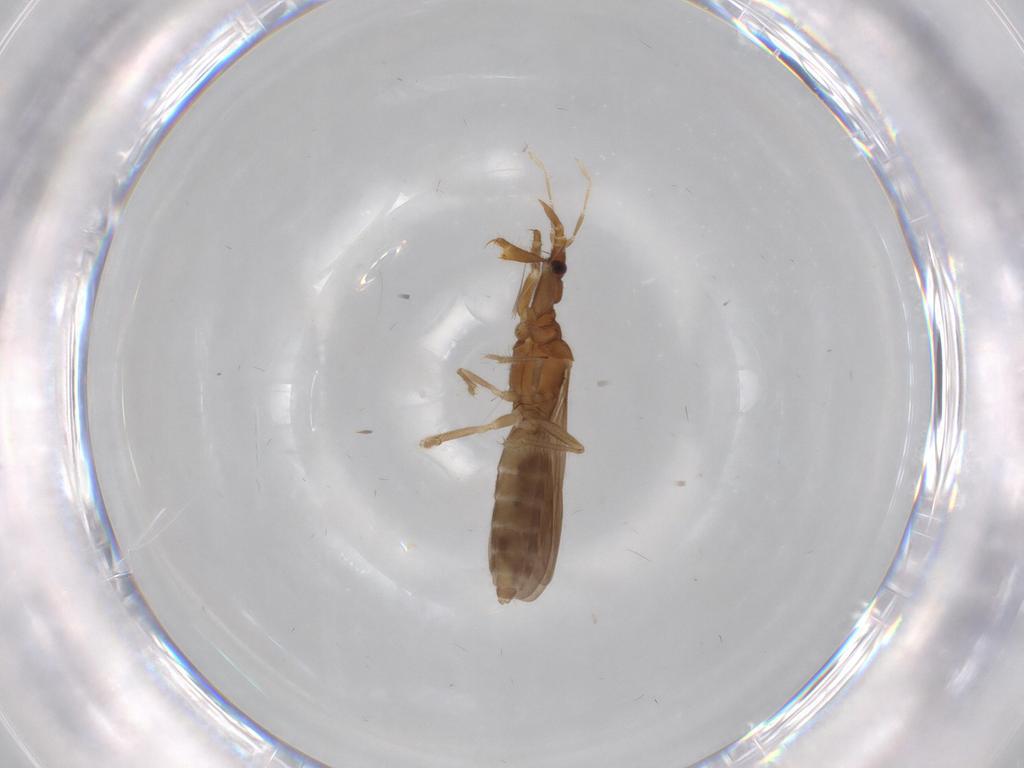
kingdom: Animalia
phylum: Arthropoda
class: Insecta
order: Hemiptera
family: Enicocephalidae
